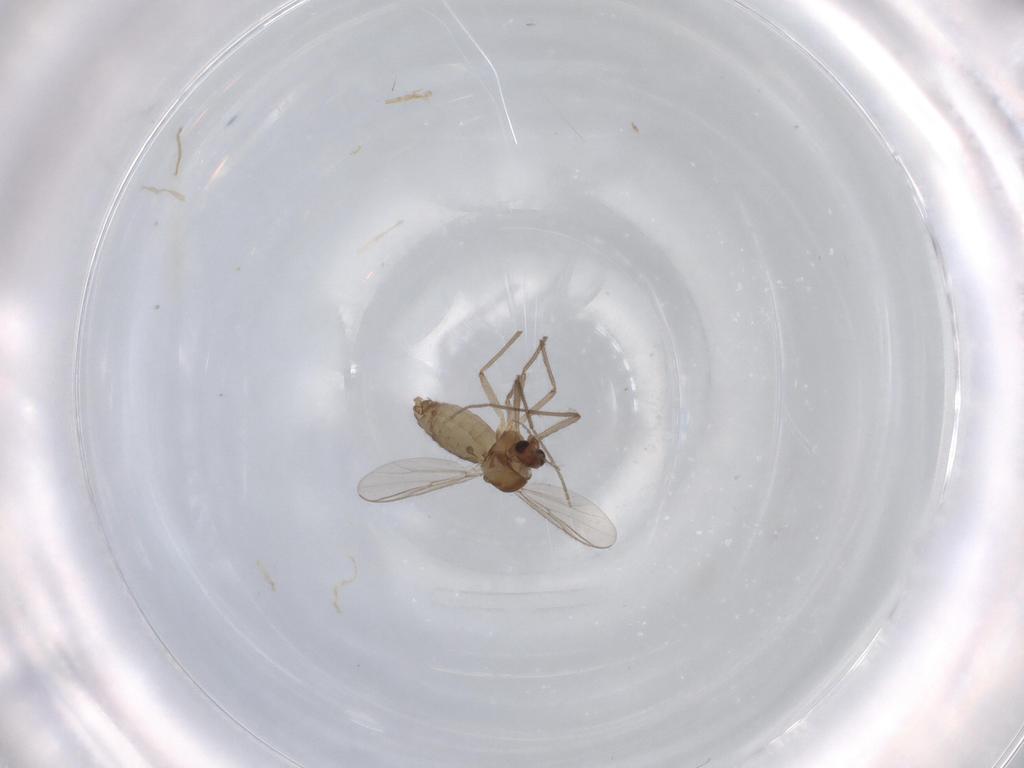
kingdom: Animalia
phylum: Arthropoda
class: Insecta
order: Diptera
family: Chironomidae
